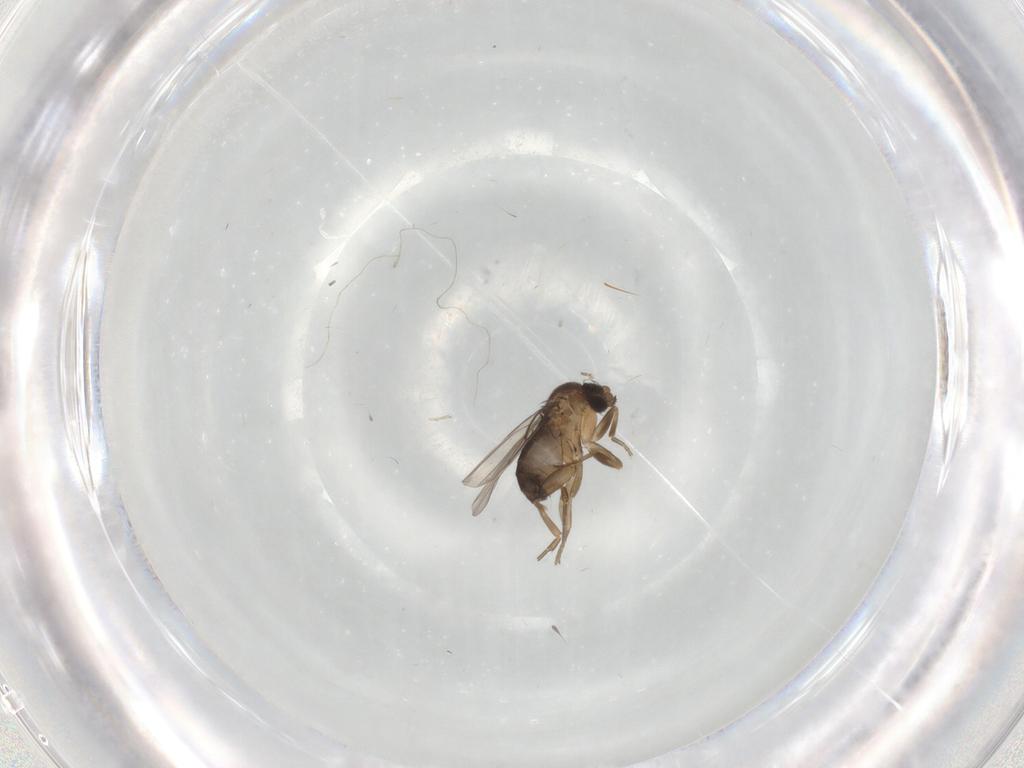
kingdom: Animalia
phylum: Arthropoda
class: Insecta
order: Diptera
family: Phoridae
